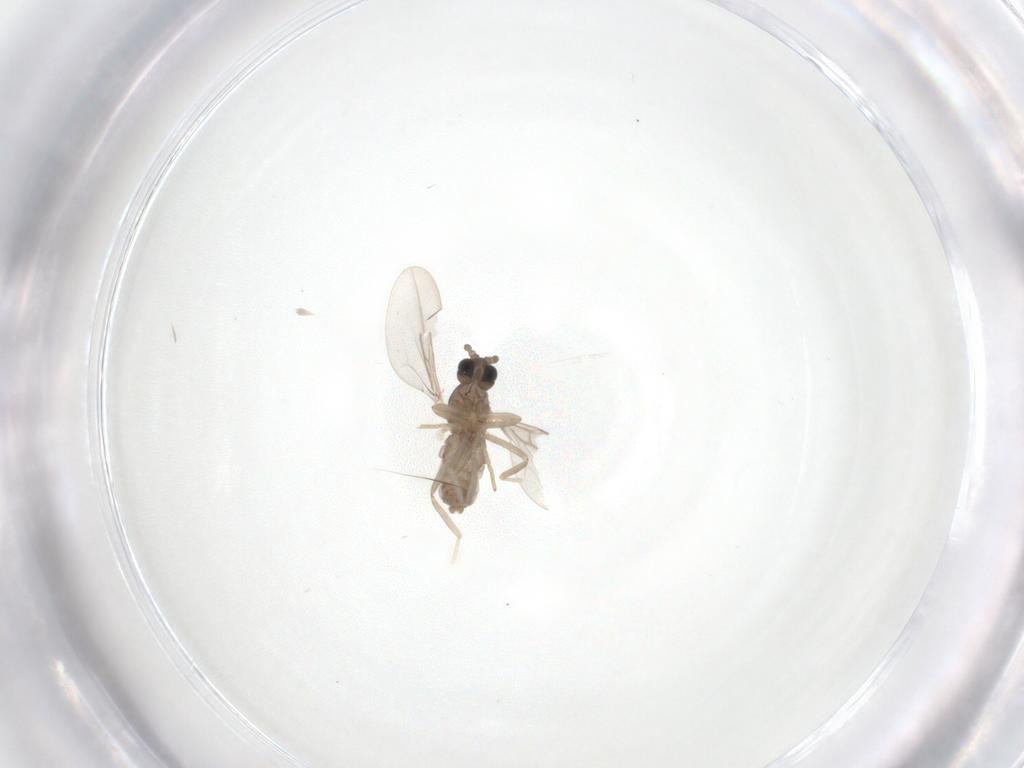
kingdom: Animalia
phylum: Arthropoda
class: Insecta
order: Diptera
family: Cecidomyiidae
